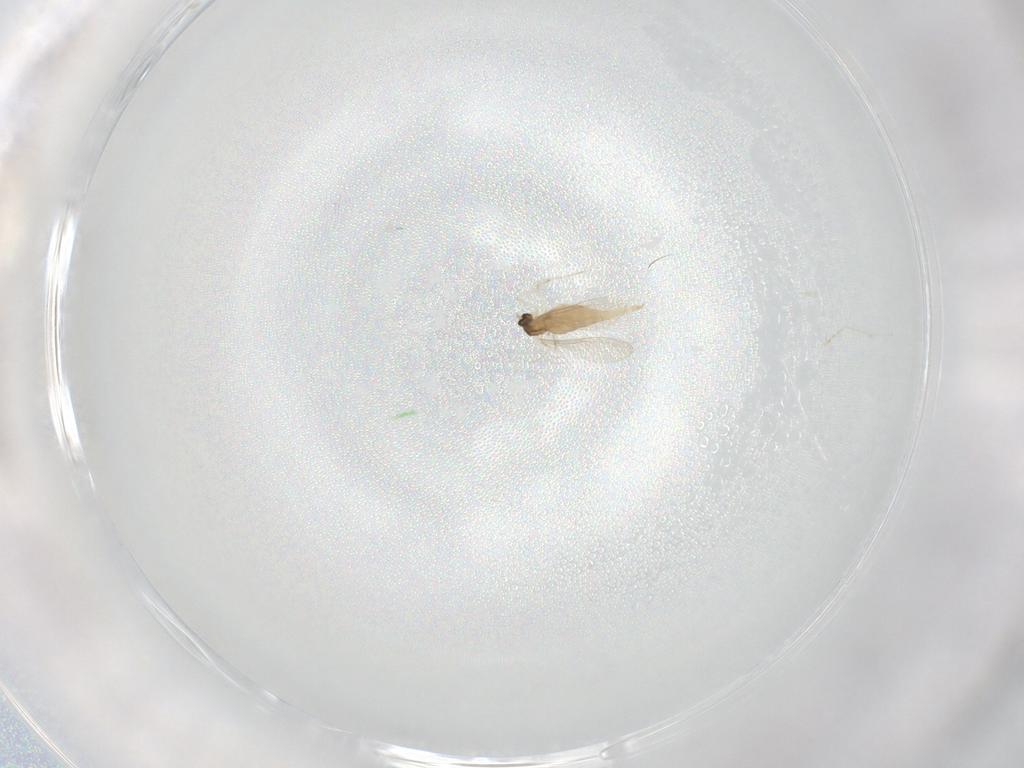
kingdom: Animalia
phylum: Arthropoda
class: Insecta
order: Diptera
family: Cecidomyiidae
